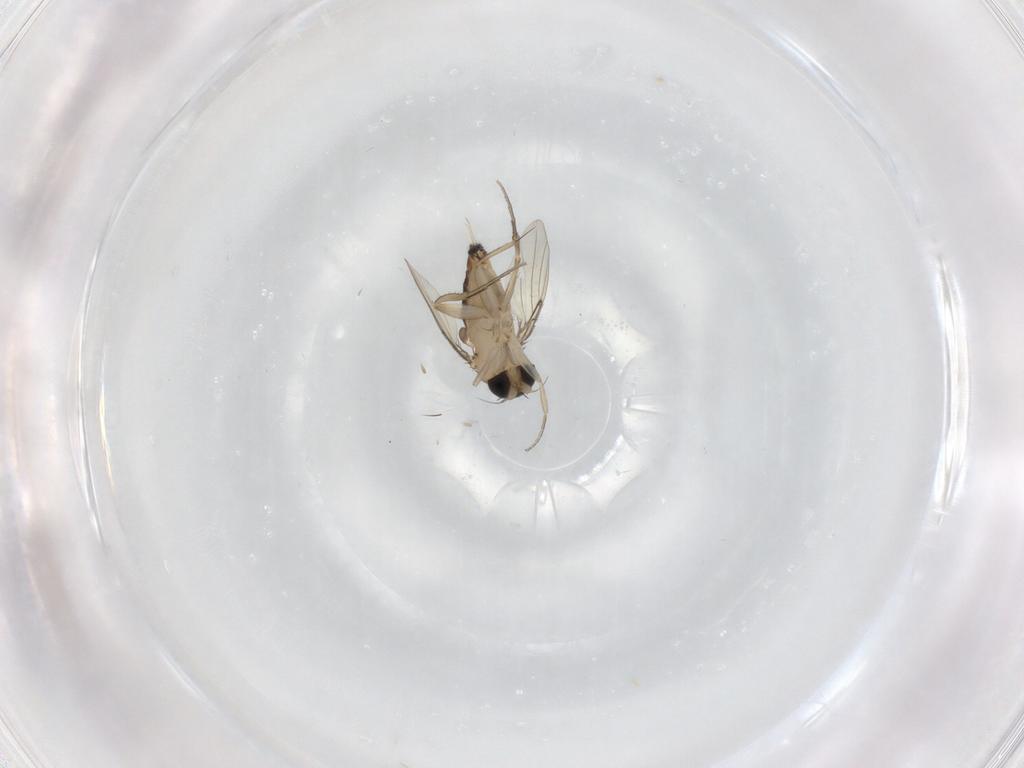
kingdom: Animalia
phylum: Arthropoda
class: Insecta
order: Diptera
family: Phoridae
